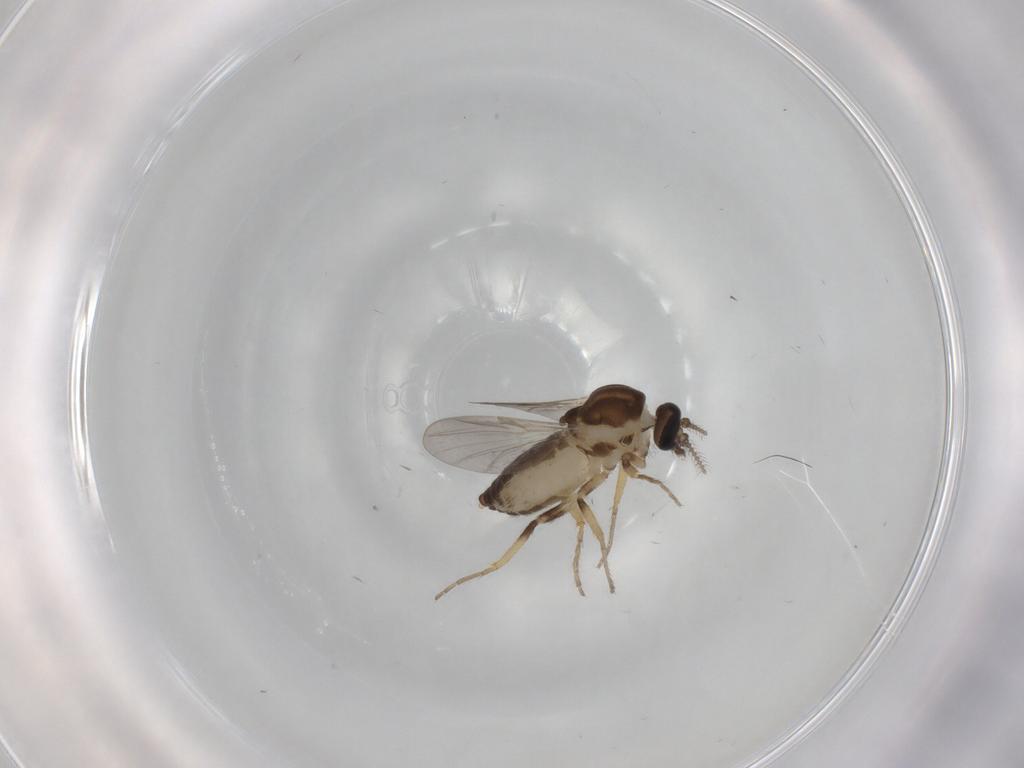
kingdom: Animalia
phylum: Arthropoda
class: Insecta
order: Diptera
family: Ceratopogonidae
